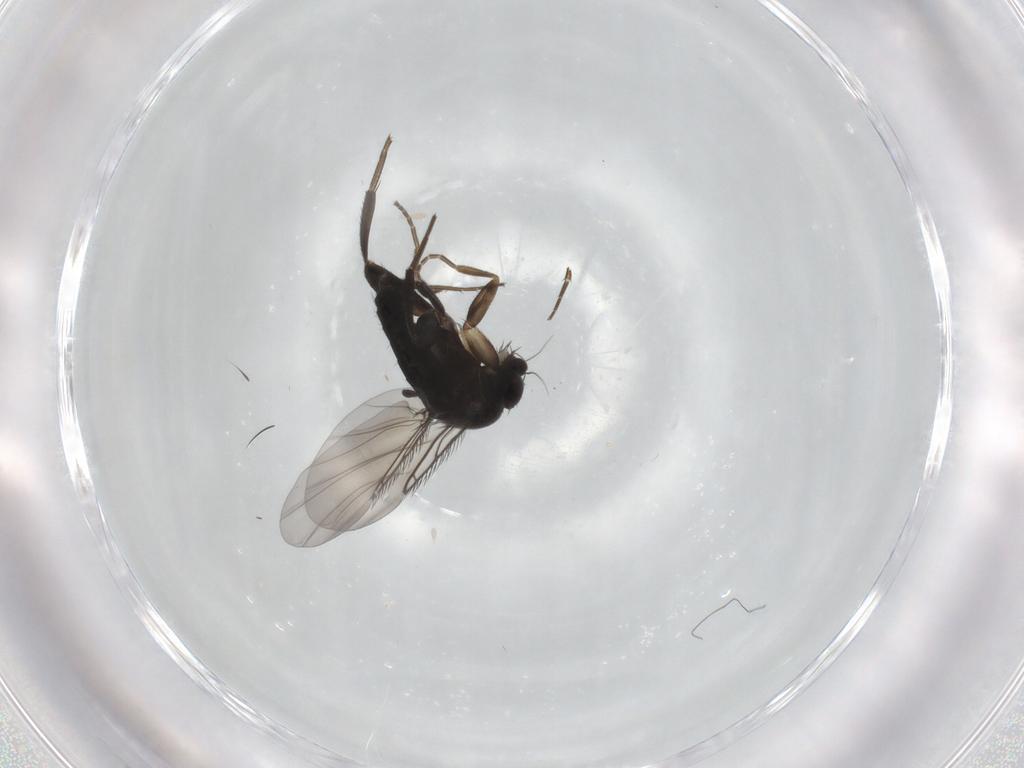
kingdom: Animalia
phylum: Arthropoda
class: Insecta
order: Diptera
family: Phoridae
